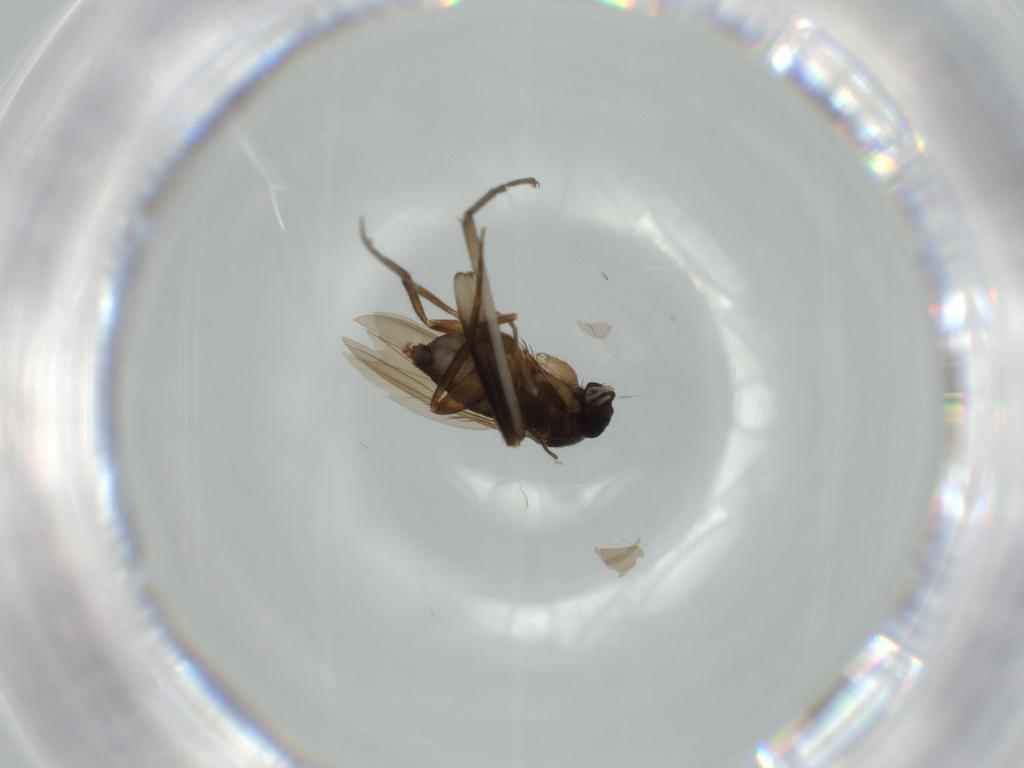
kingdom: Animalia
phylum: Arthropoda
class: Insecta
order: Diptera
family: Phoridae
